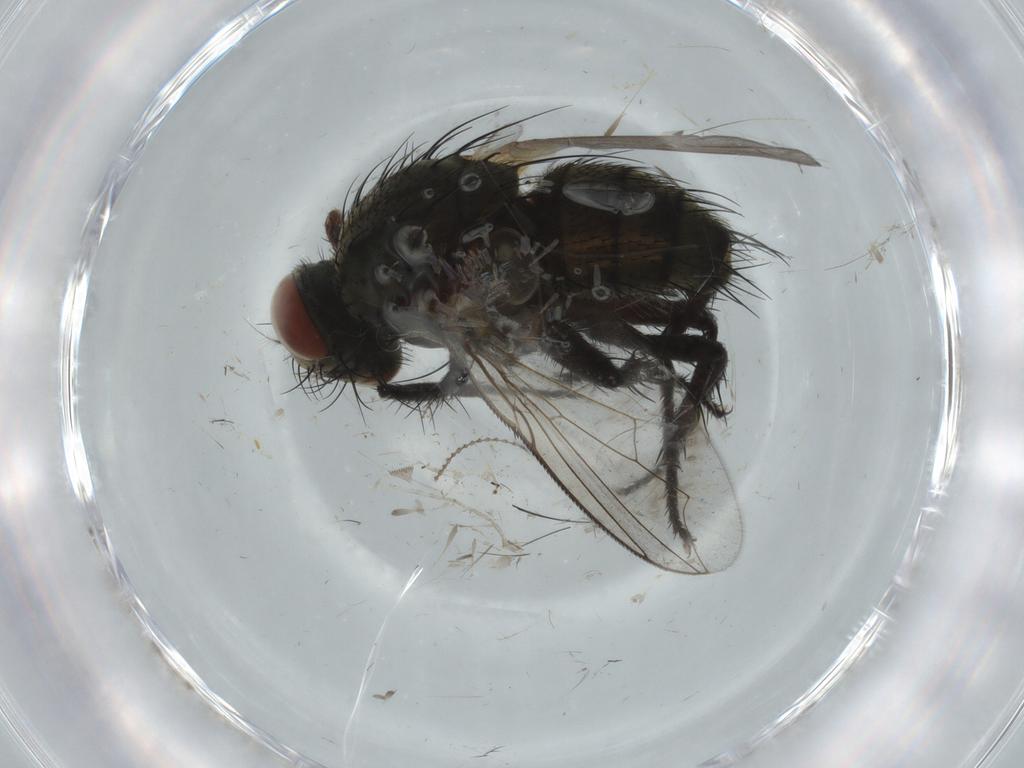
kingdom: Animalia
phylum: Arthropoda
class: Insecta
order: Diptera
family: Sarcophagidae
